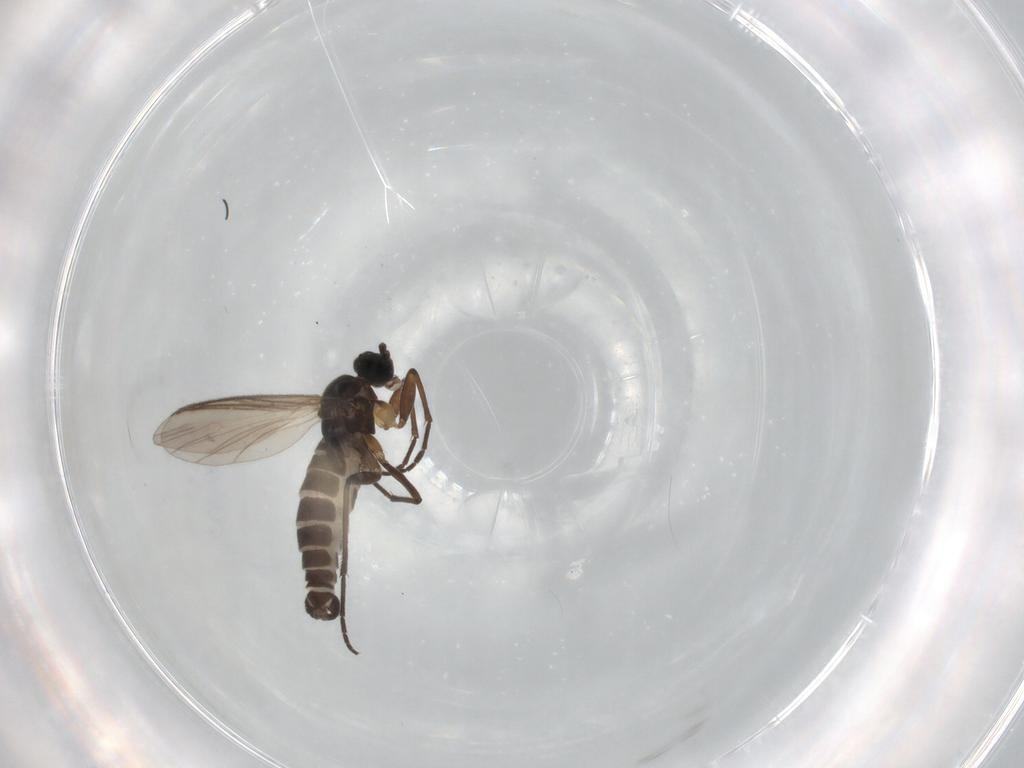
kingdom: Animalia
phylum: Arthropoda
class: Insecta
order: Diptera
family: Sciaridae
